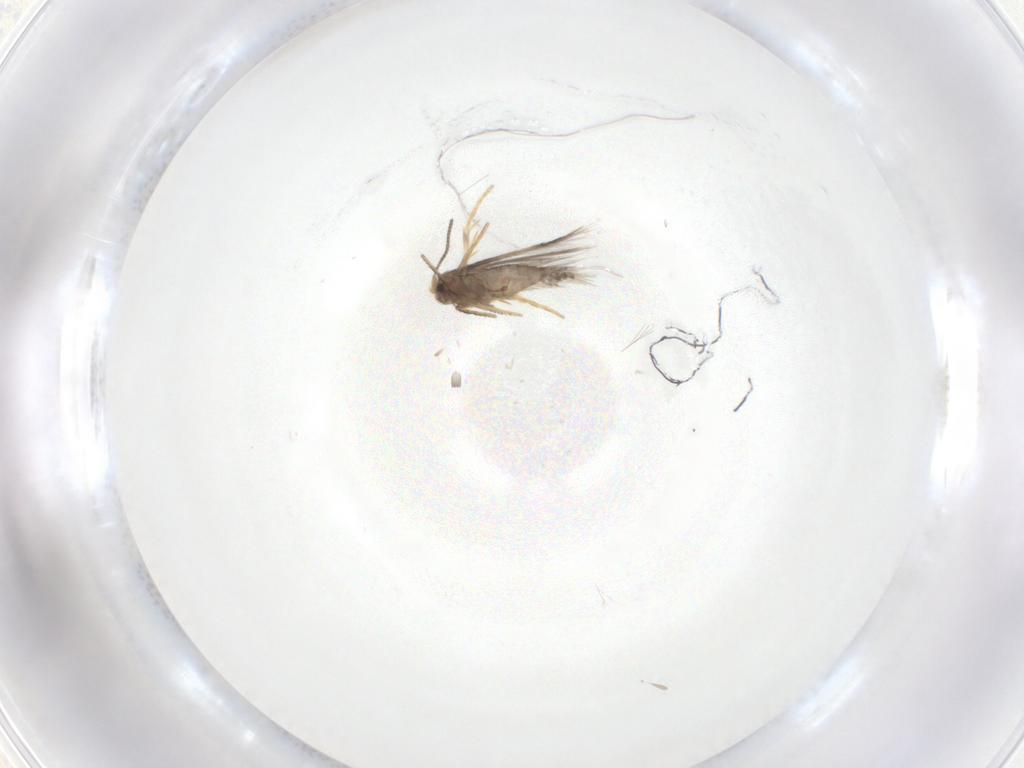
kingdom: Animalia
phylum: Arthropoda
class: Insecta
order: Lepidoptera
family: Nepticulidae
